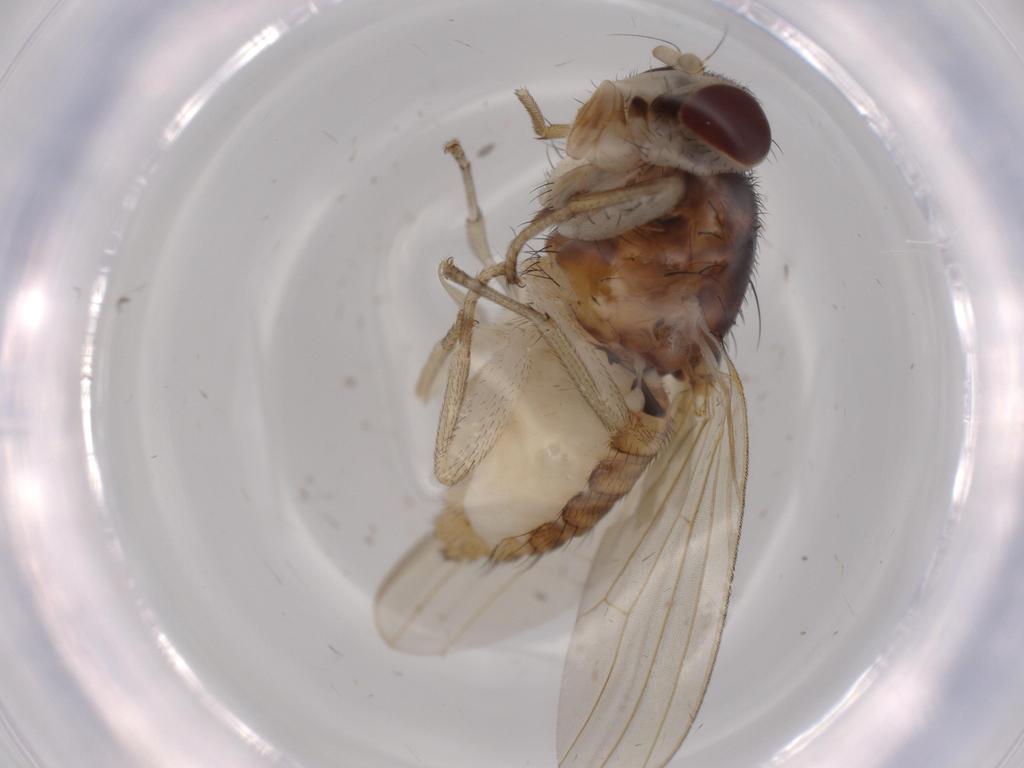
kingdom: Animalia
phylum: Arthropoda
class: Insecta
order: Diptera
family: Lauxaniidae
